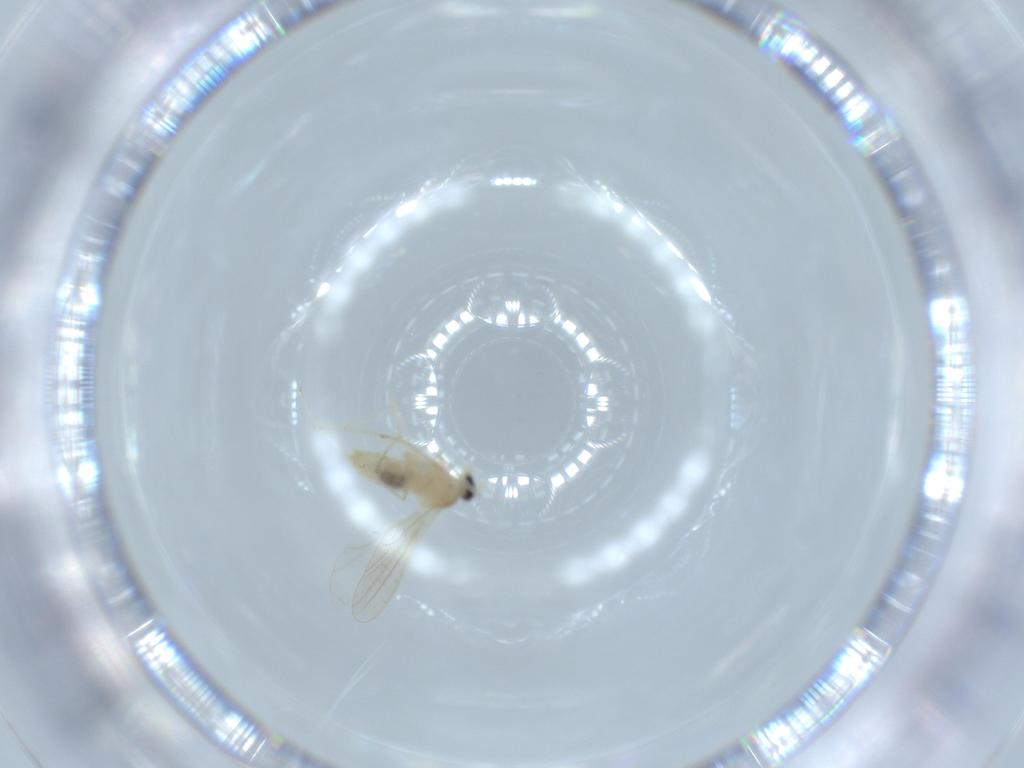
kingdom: Animalia
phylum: Arthropoda
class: Insecta
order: Diptera
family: Cecidomyiidae
